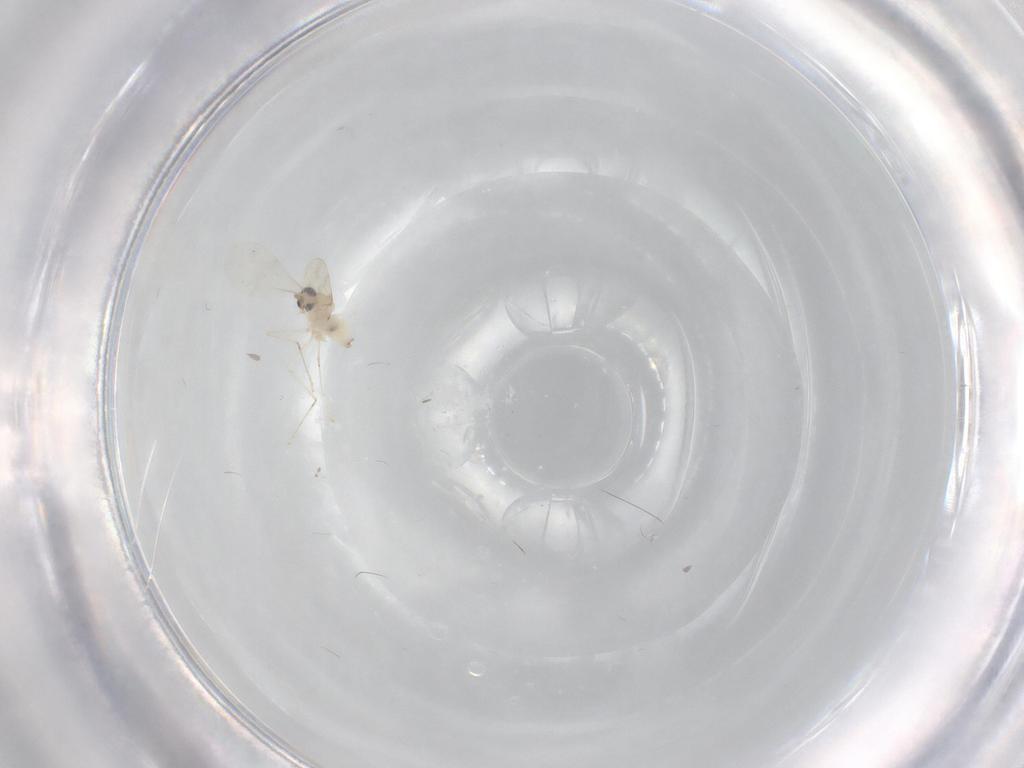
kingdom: Animalia
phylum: Arthropoda
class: Insecta
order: Diptera
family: Cecidomyiidae
